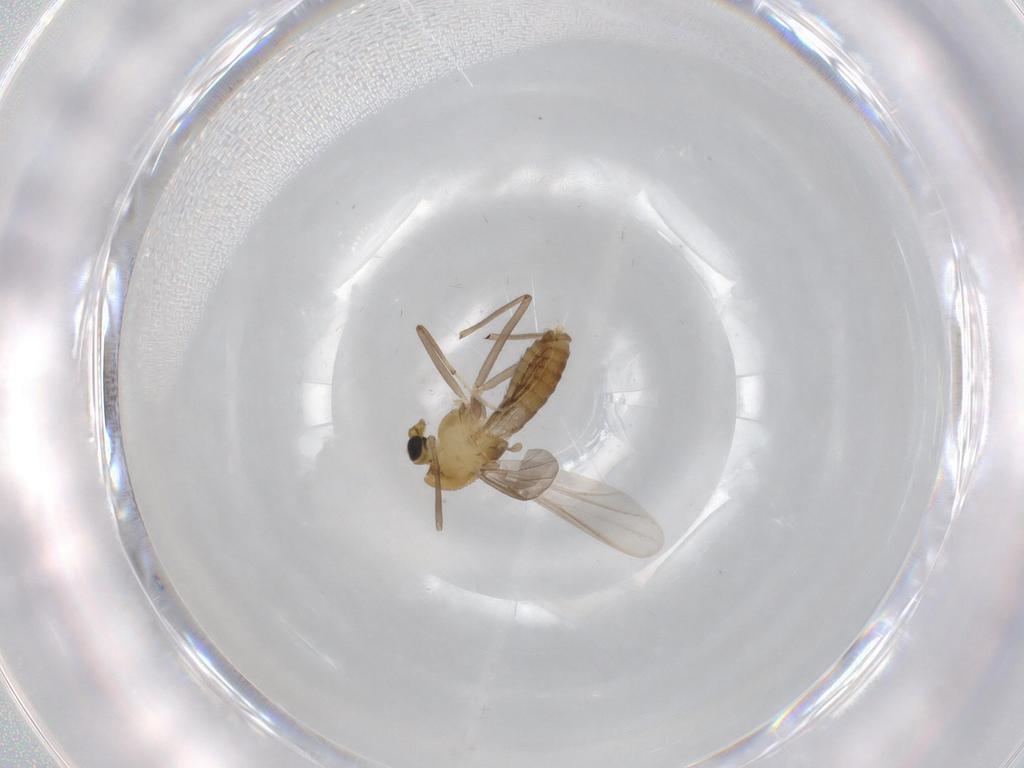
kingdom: Animalia
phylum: Arthropoda
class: Insecta
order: Diptera
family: Chironomidae
